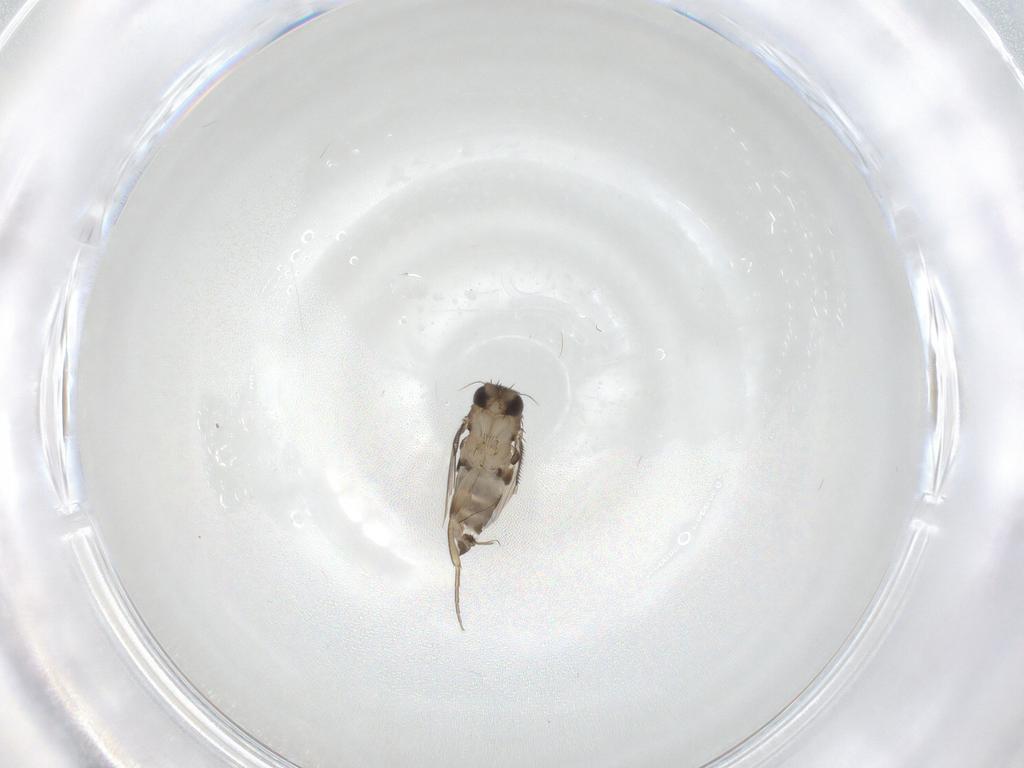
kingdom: Animalia
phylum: Arthropoda
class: Insecta
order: Diptera
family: Phoridae
